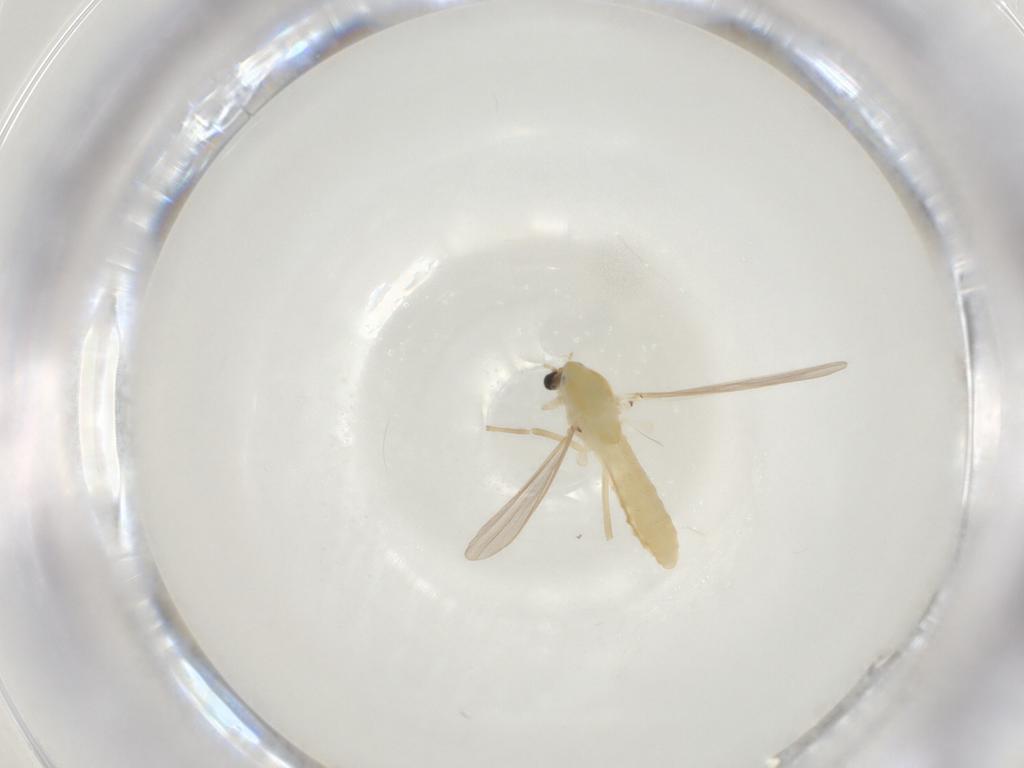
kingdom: Animalia
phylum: Arthropoda
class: Insecta
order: Diptera
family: Chironomidae
